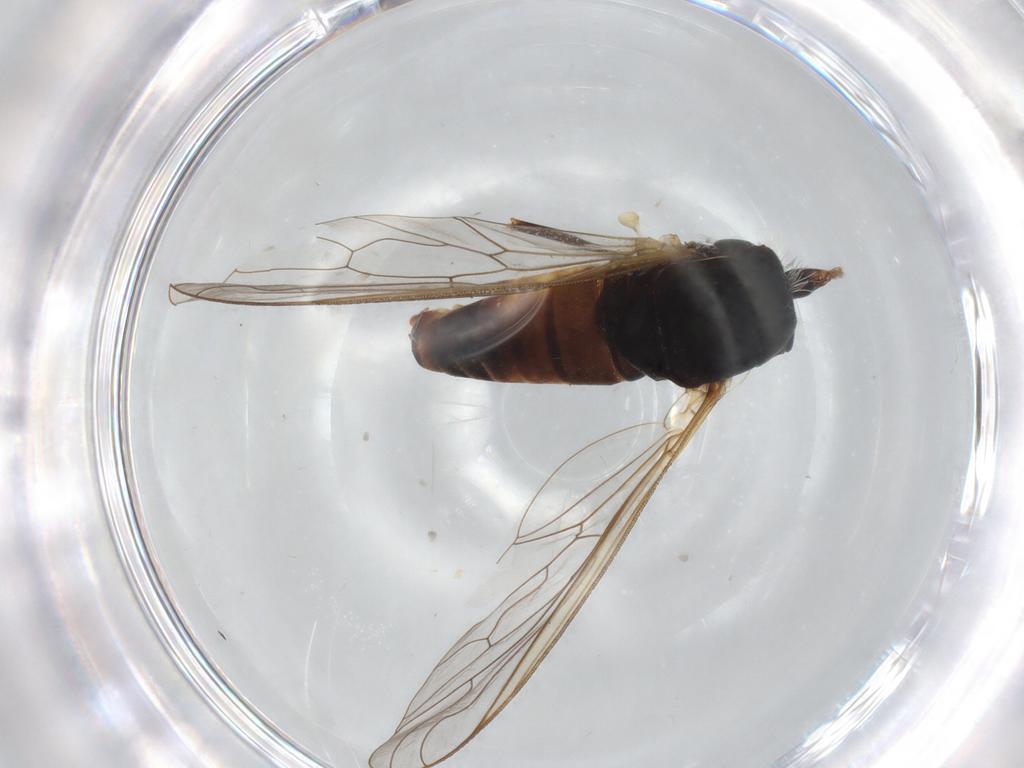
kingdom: Animalia
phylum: Arthropoda
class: Insecta
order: Diptera
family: Bombyliidae
